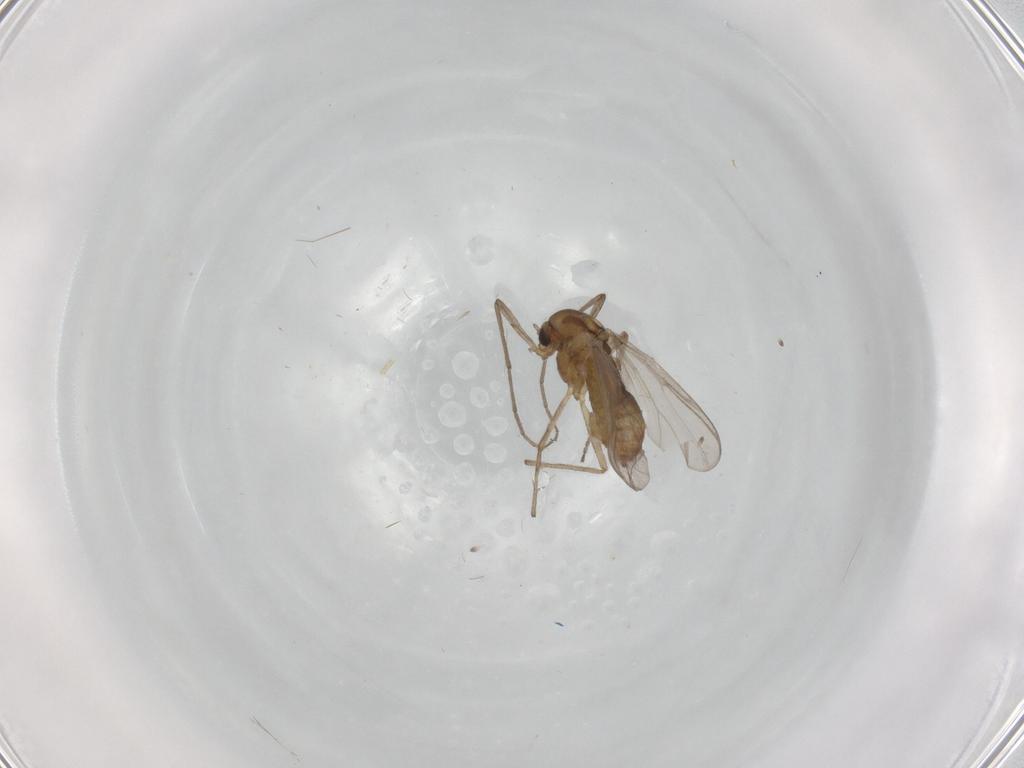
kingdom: Animalia
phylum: Arthropoda
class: Insecta
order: Diptera
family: Chironomidae
